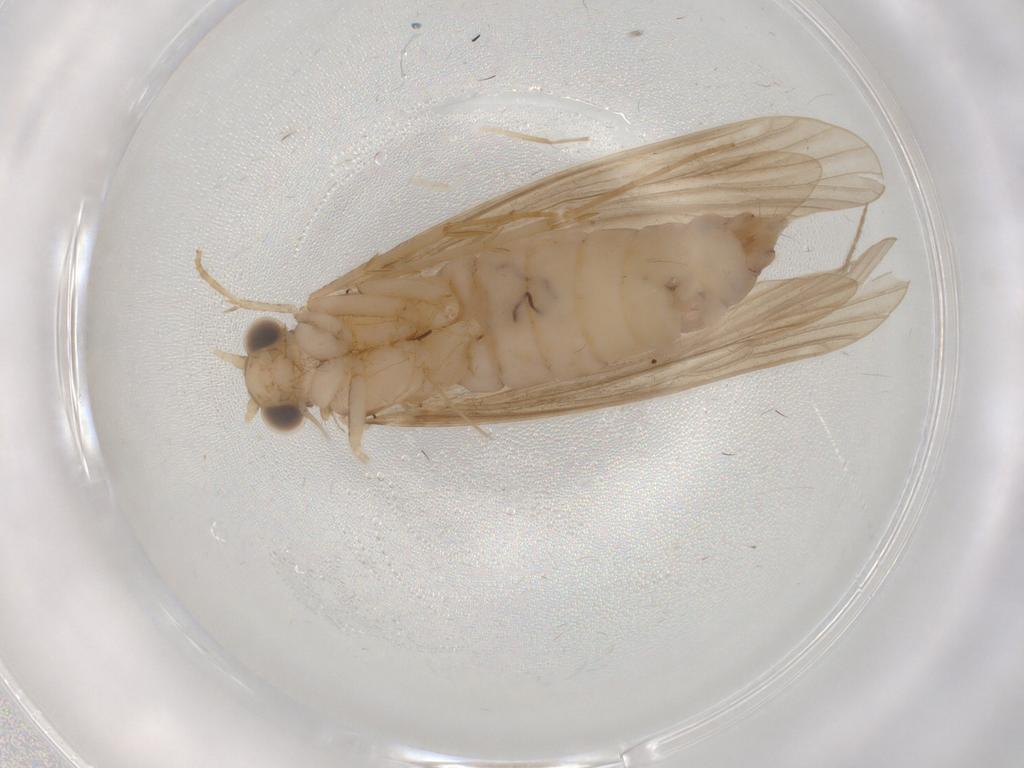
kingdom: Animalia
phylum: Arthropoda
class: Insecta
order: Trichoptera
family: Ecnomidae
